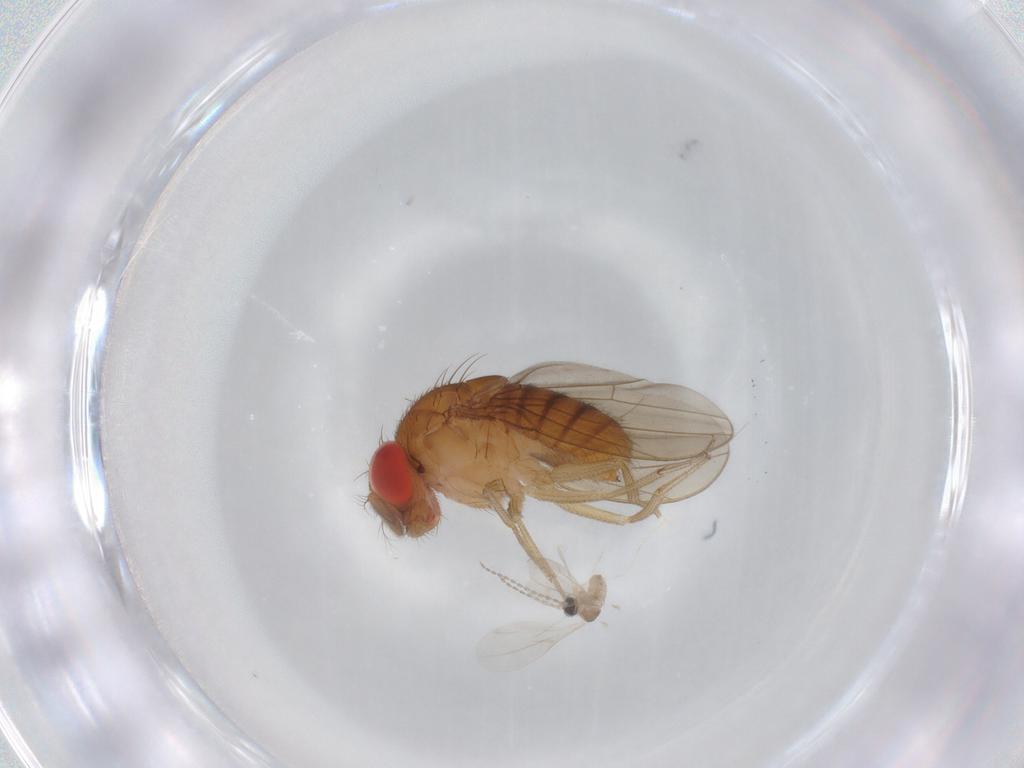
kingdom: Animalia
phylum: Arthropoda
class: Insecta
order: Diptera
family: Drosophilidae
